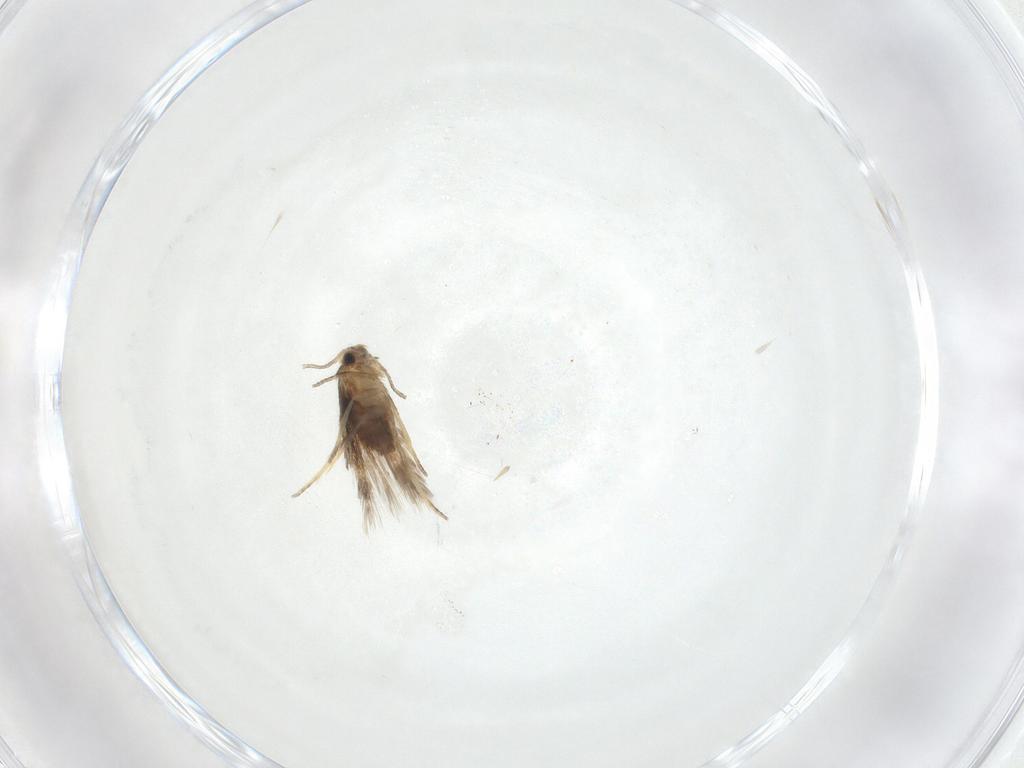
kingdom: Animalia
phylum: Arthropoda
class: Insecta
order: Lepidoptera
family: Nepticulidae
